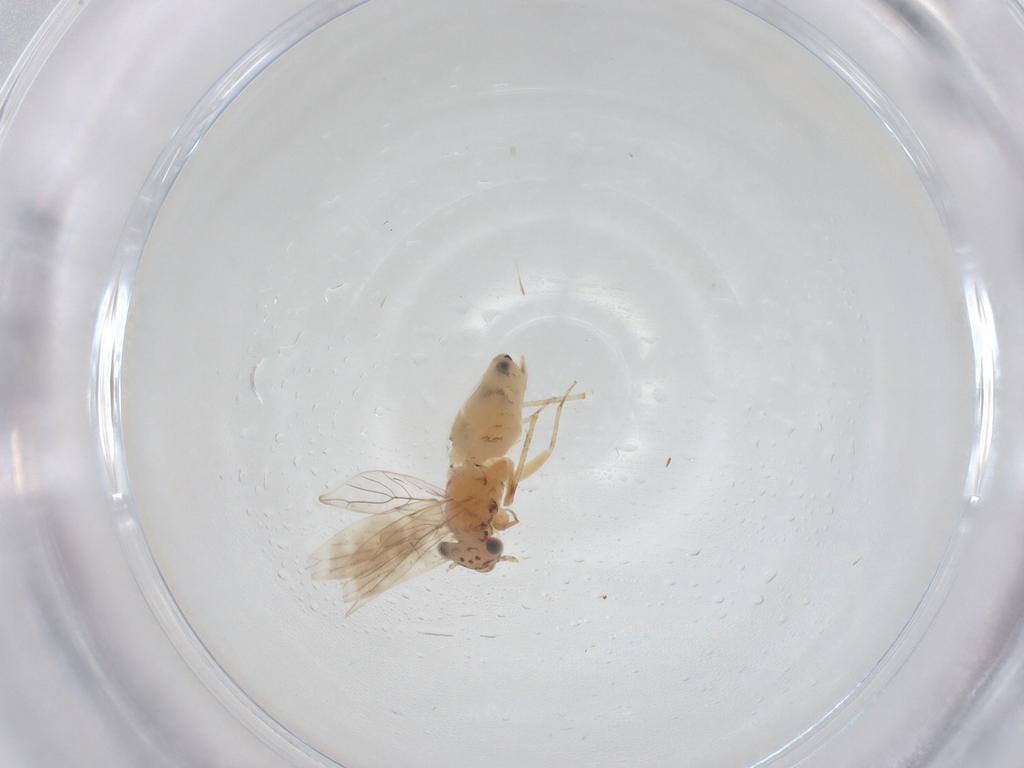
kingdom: Animalia
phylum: Arthropoda
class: Insecta
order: Psocodea
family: Lepidopsocidae
